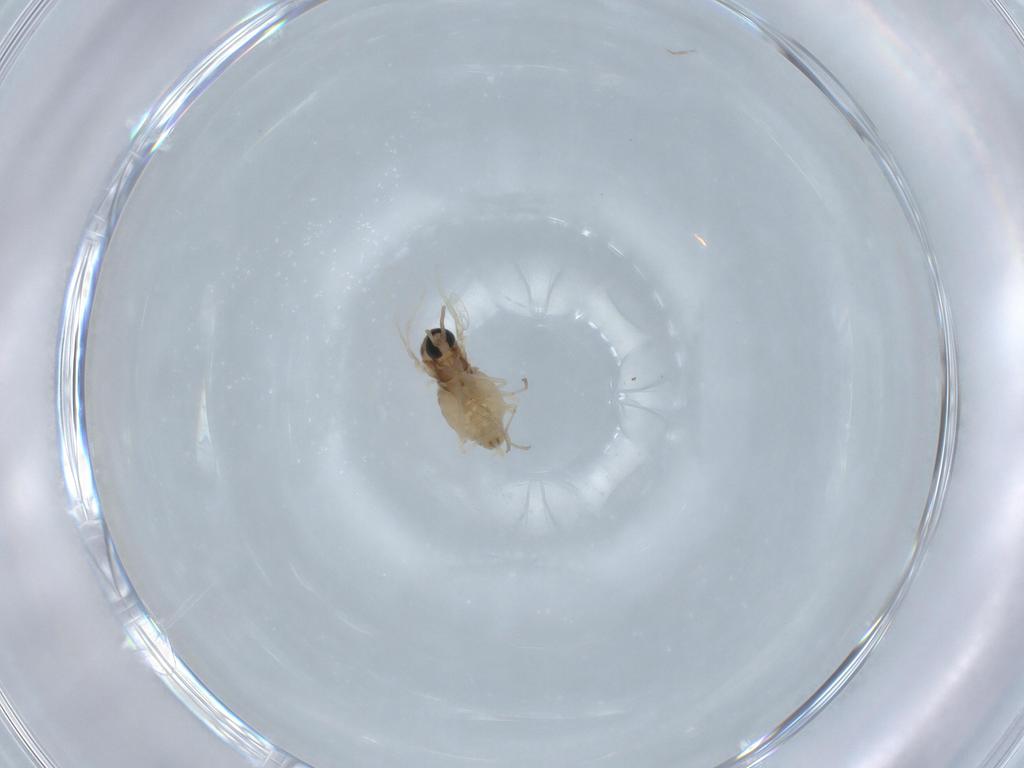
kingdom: Animalia
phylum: Arthropoda
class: Insecta
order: Diptera
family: Cecidomyiidae
